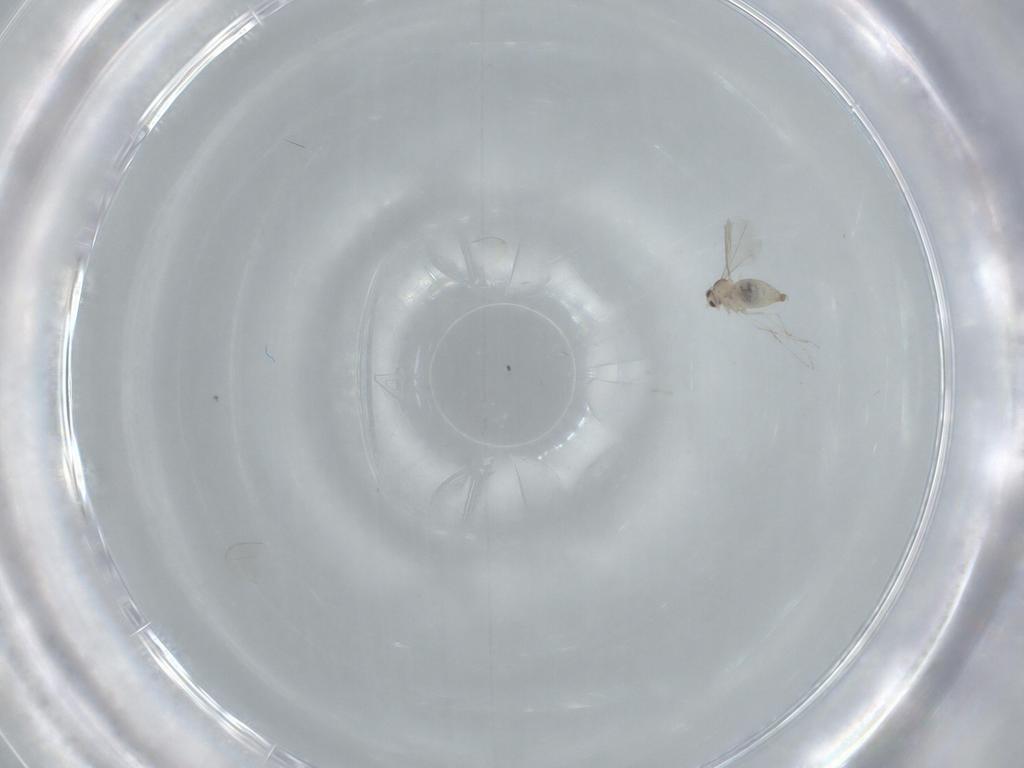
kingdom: Animalia
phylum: Arthropoda
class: Insecta
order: Diptera
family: Cecidomyiidae
